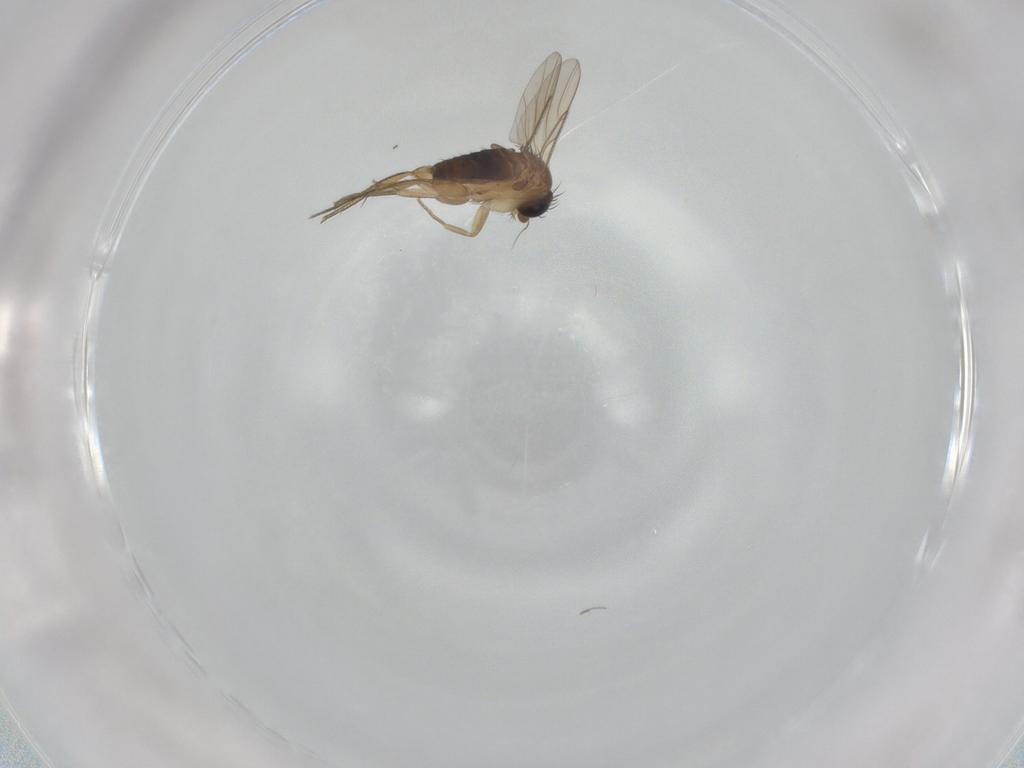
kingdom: Animalia
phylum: Arthropoda
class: Insecta
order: Diptera
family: Phoridae
